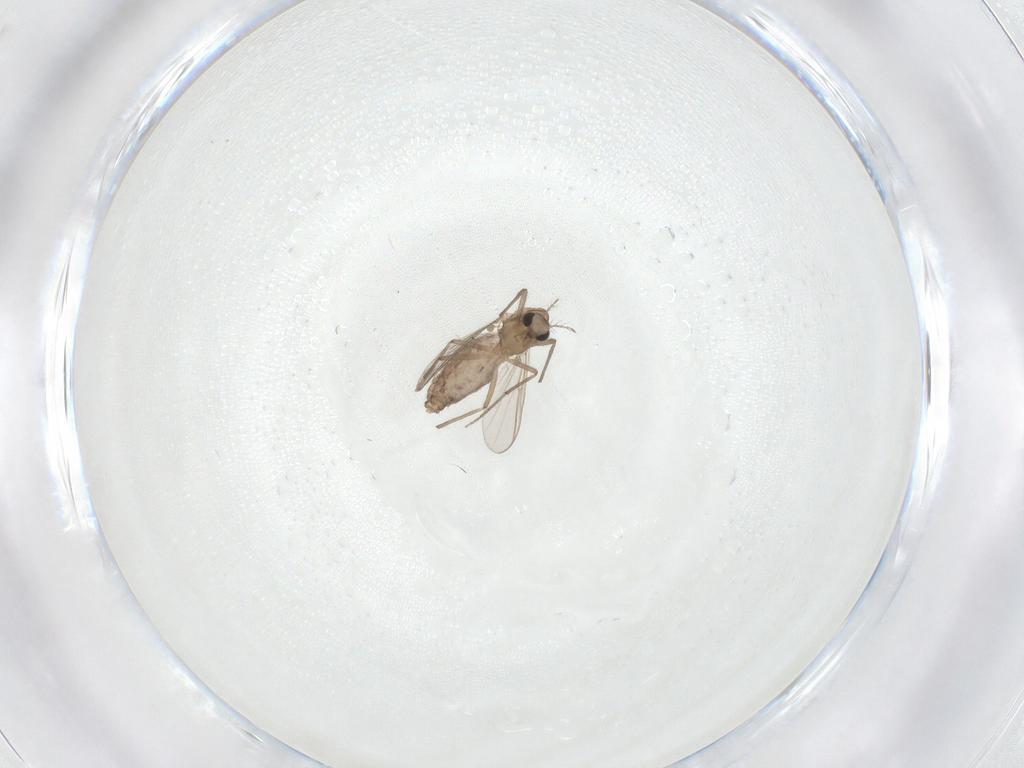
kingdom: Animalia
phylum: Arthropoda
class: Insecta
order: Diptera
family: Chironomidae
